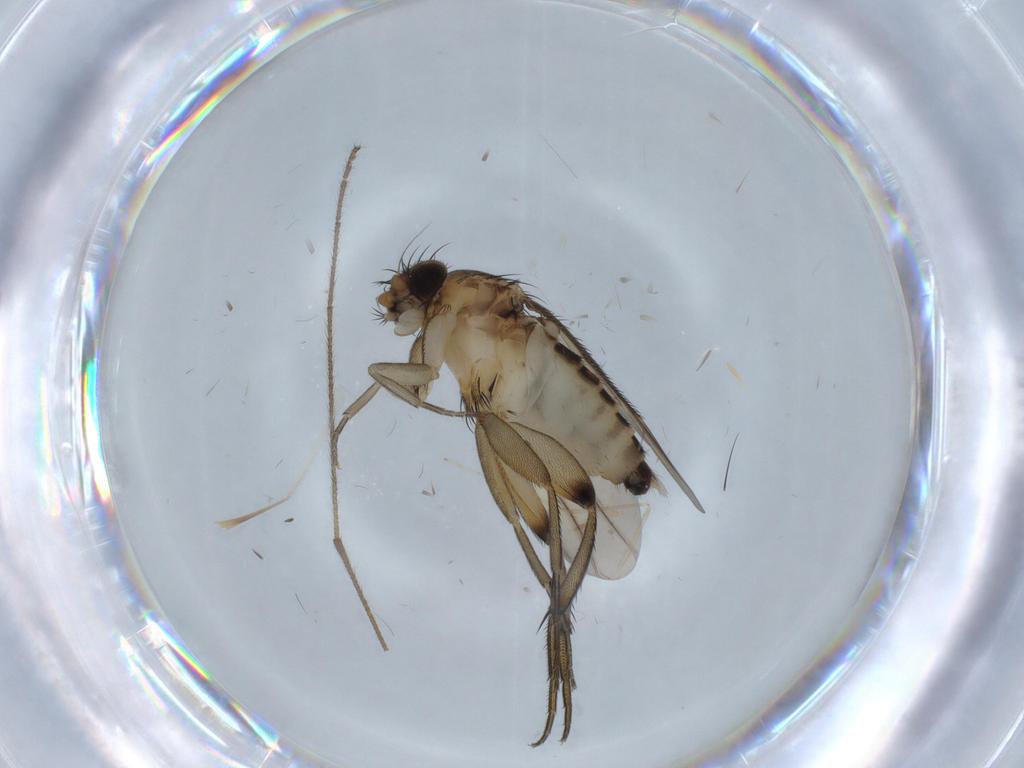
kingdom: Animalia
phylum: Arthropoda
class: Insecta
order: Diptera
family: Phoridae
